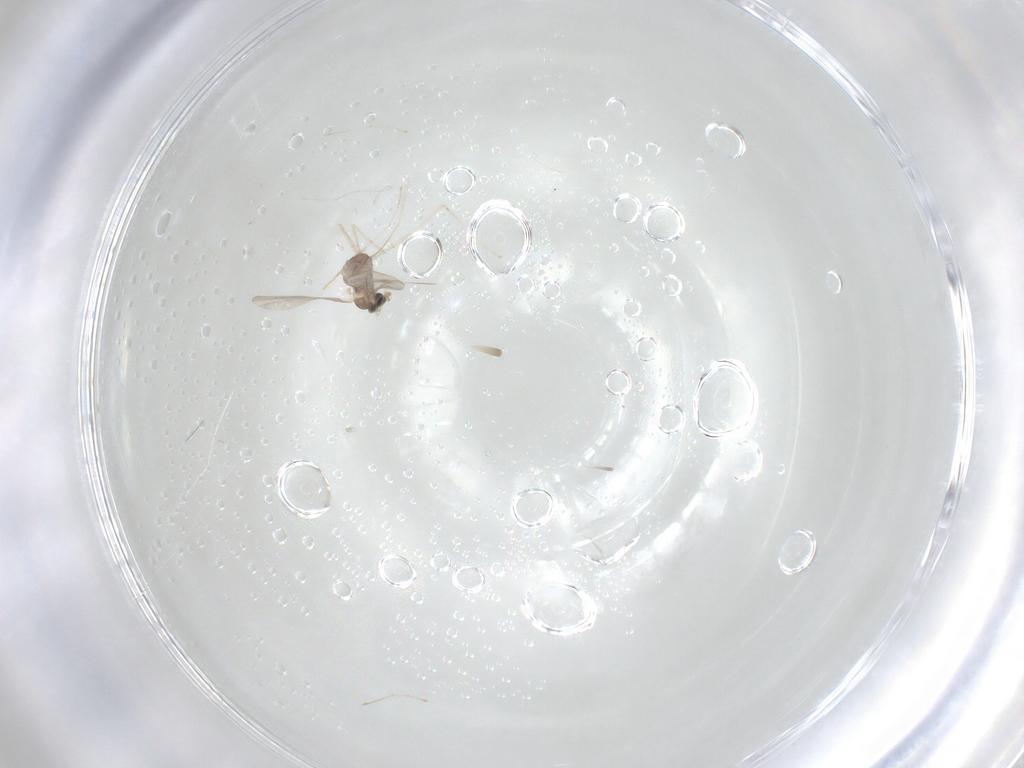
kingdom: Animalia
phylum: Arthropoda
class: Insecta
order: Diptera
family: Cecidomyiidae
